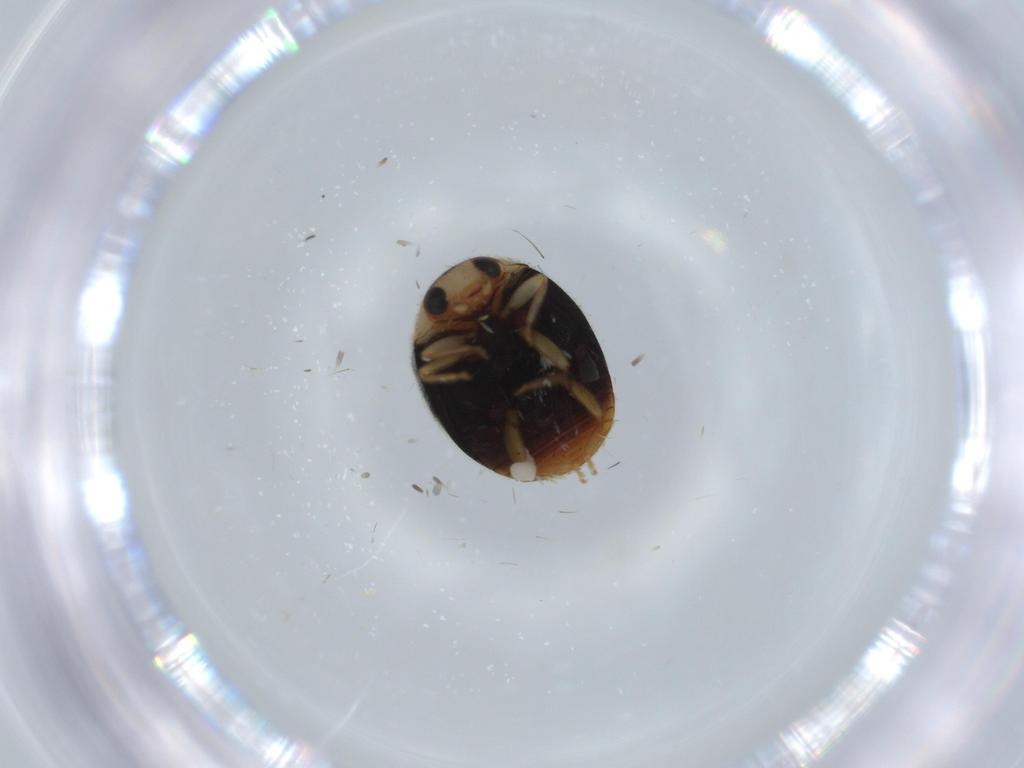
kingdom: Animalia
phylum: Arthropoda
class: Insecta
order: Coleoptera
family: Coccinellidae
